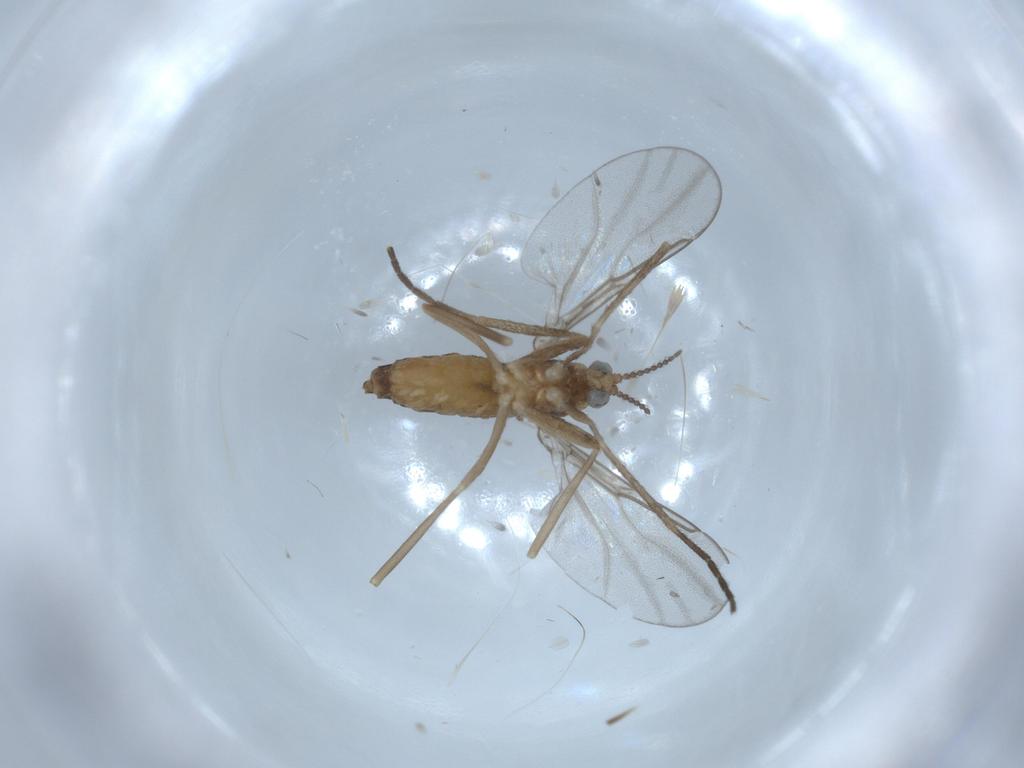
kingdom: Animalia
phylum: Arthropoda
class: Insecta
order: Diptera
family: Cecidomyiidae
